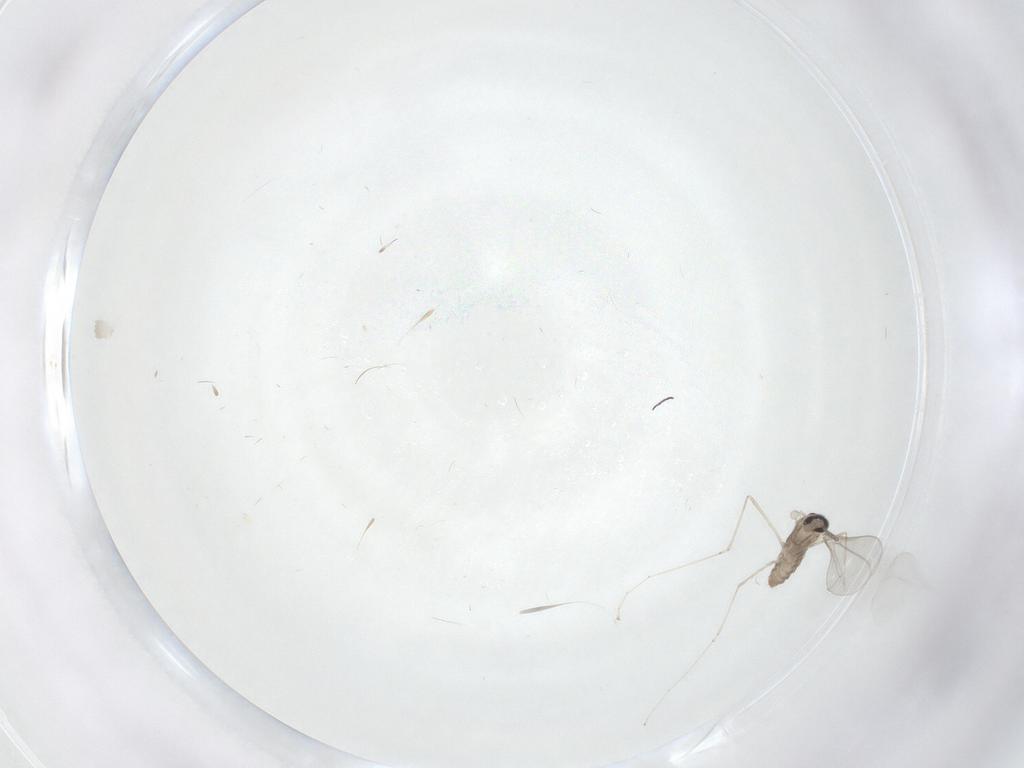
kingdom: Animalia
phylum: Arthropoda
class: Insecta
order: Diptera
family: Cecidomyiidae
